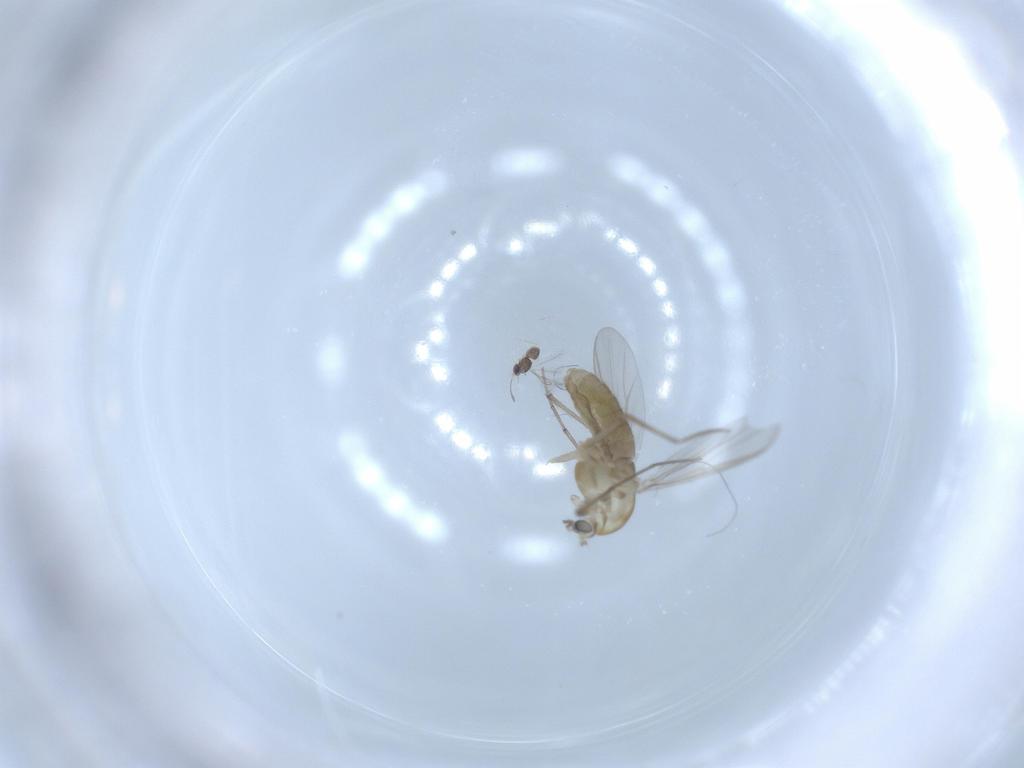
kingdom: Animalia
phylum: Arthropoda
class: Insecta
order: Diptera
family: Chironomidae
